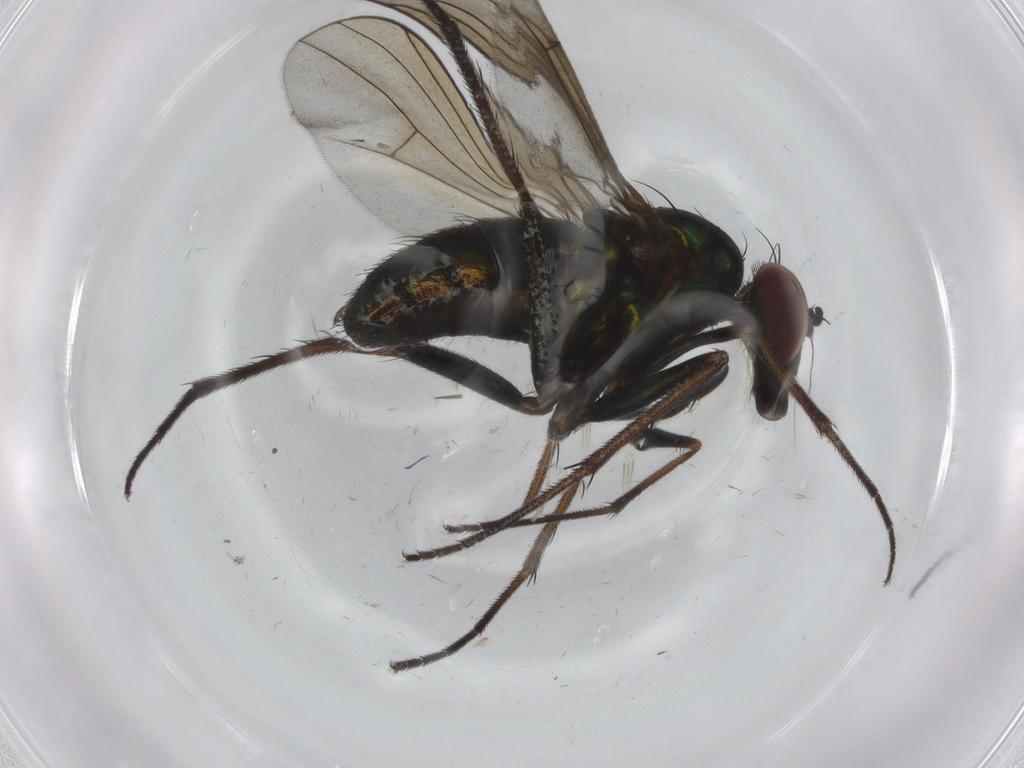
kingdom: Animalia
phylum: Arthropoda
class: Insecta
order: Diptera
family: Dolichopodidae
